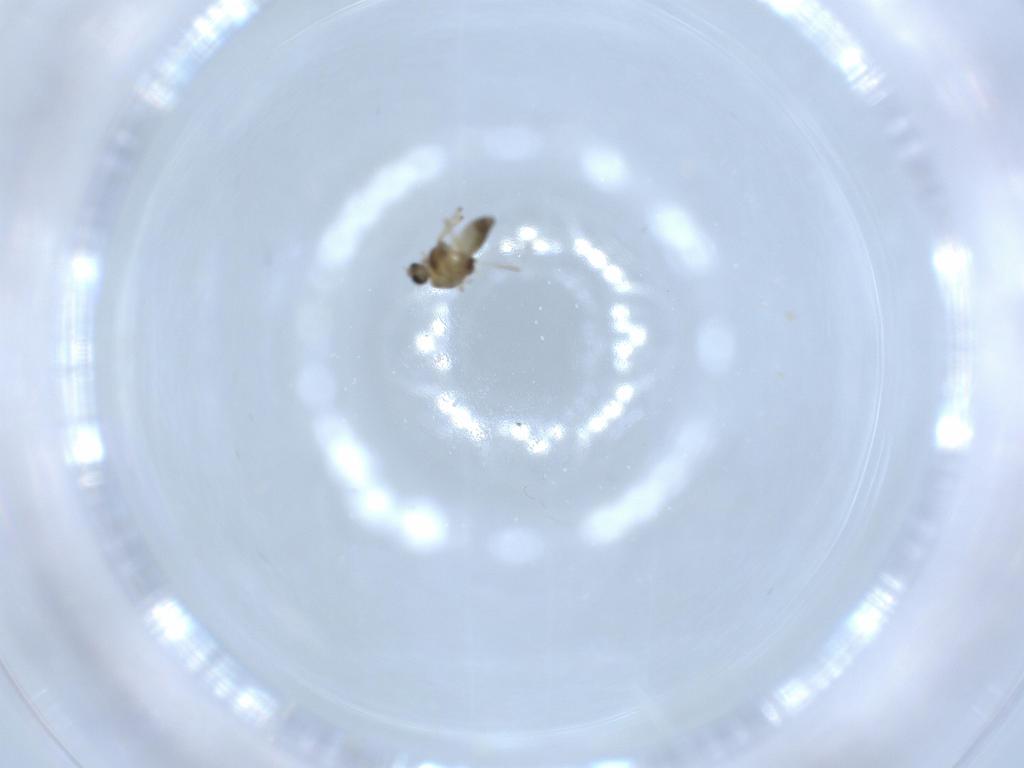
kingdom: Animalia
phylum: Arthropoda
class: Insecta
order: Diptera
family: Chironomidae
